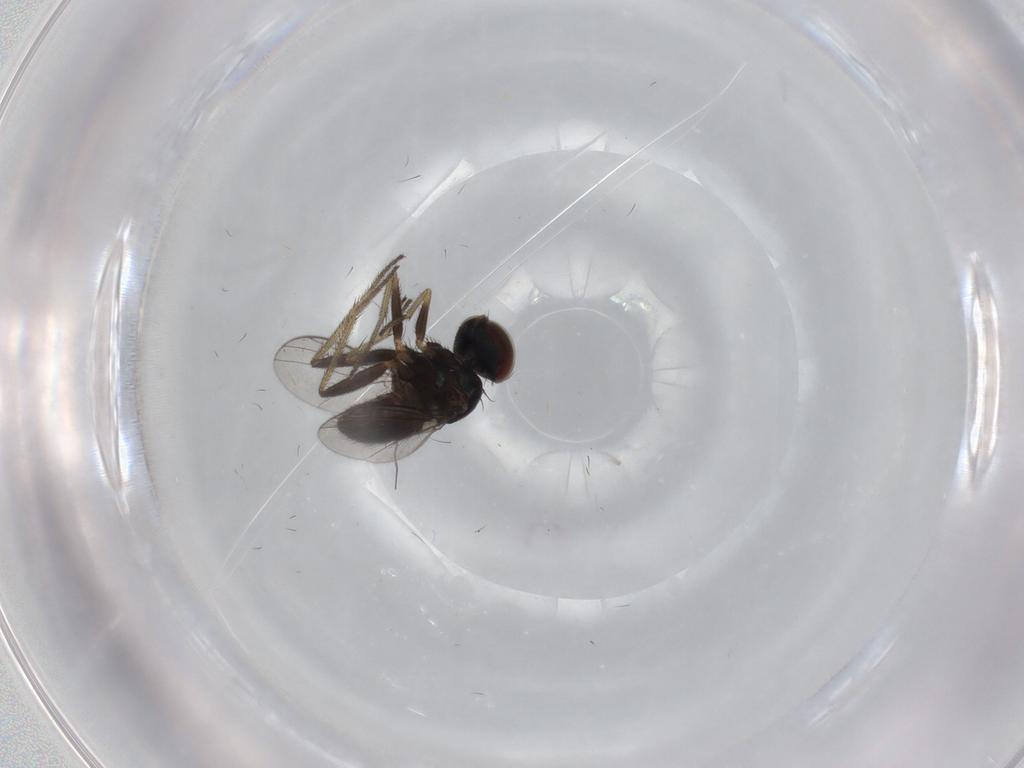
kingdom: Animalia
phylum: Arthropoda
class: Insecta
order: Diptera
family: Dolichopodidae
